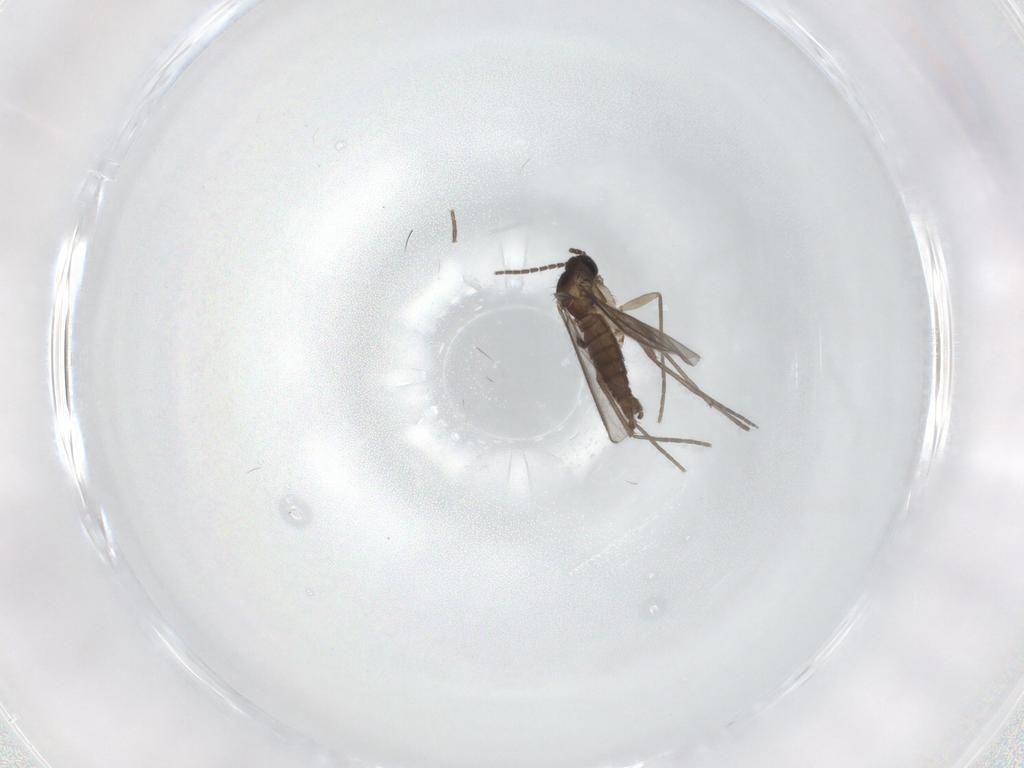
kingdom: Animalia
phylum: Arthropoda
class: Insecta
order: Diptera
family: Sciaridae
